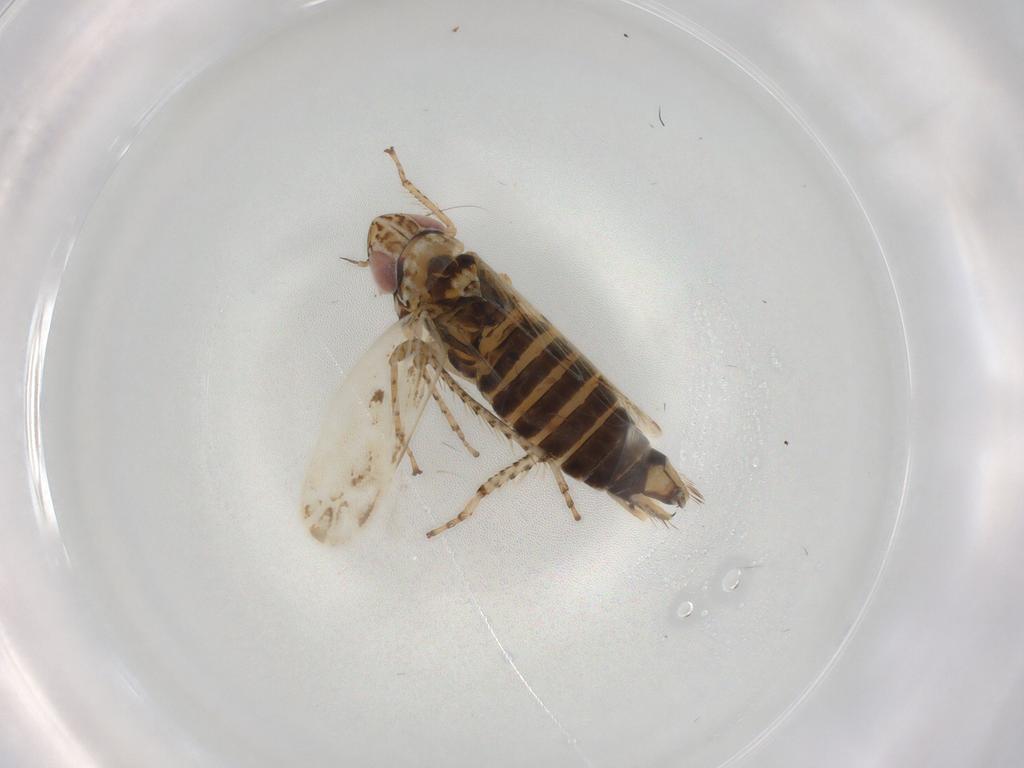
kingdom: Animalia
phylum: Arthropoda
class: Insecta
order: Hemiptera
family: Cicadellidae
